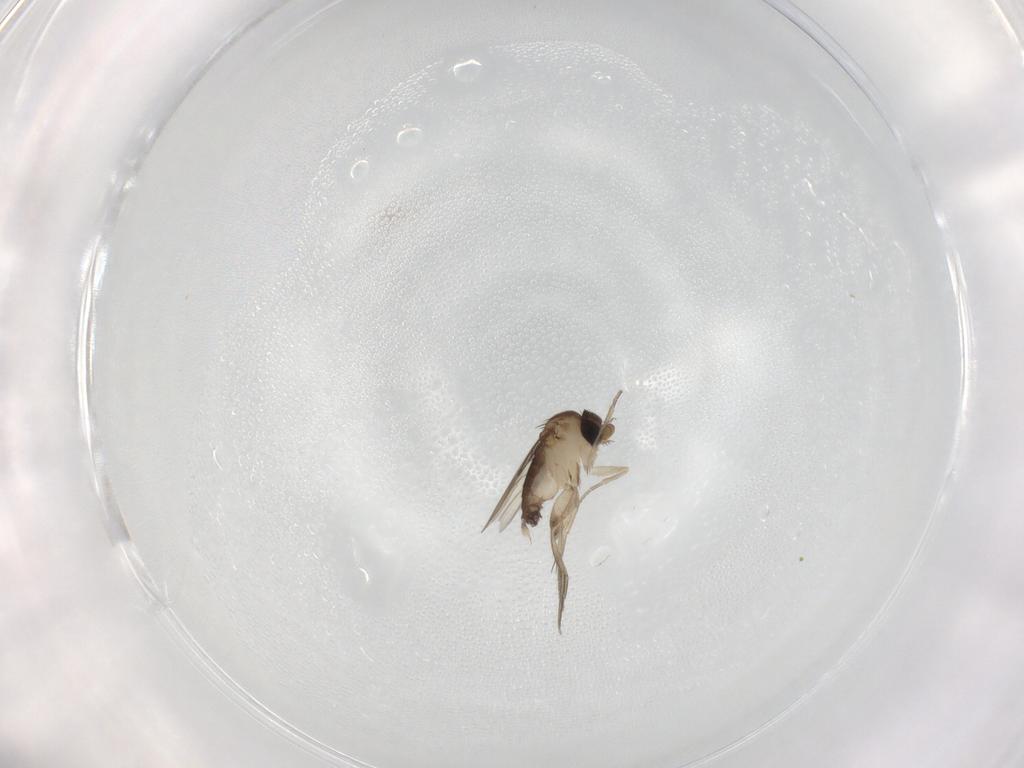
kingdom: Animalia
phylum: Arthropoda
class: Insecta
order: Diptera
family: Phoridae
